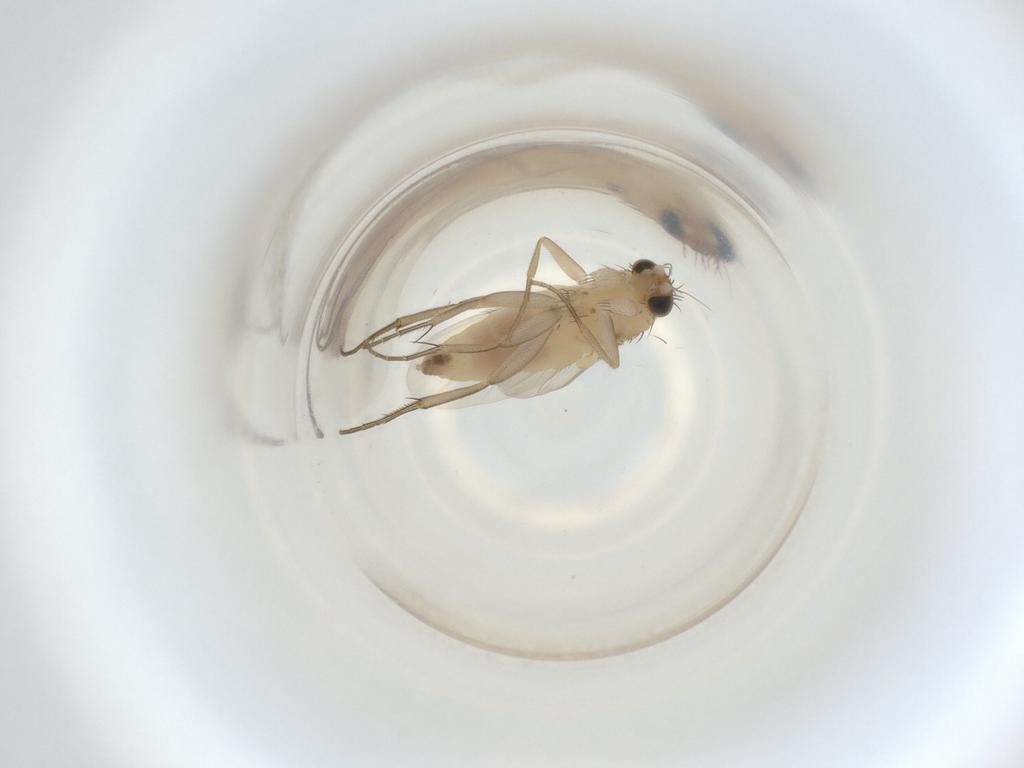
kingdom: Animalia
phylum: Arthropoda
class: Insecta
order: Diptera
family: Phoridae
